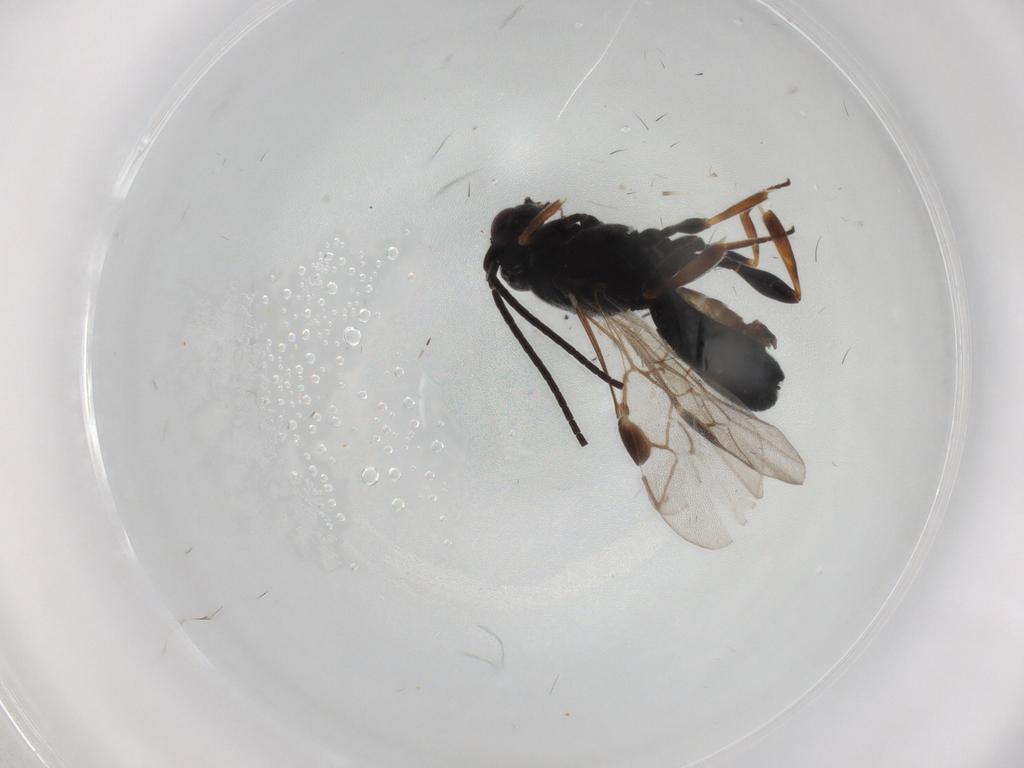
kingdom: Animalia
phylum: Arthropoda
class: Insecta
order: Hymenoptera
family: Braconidae
